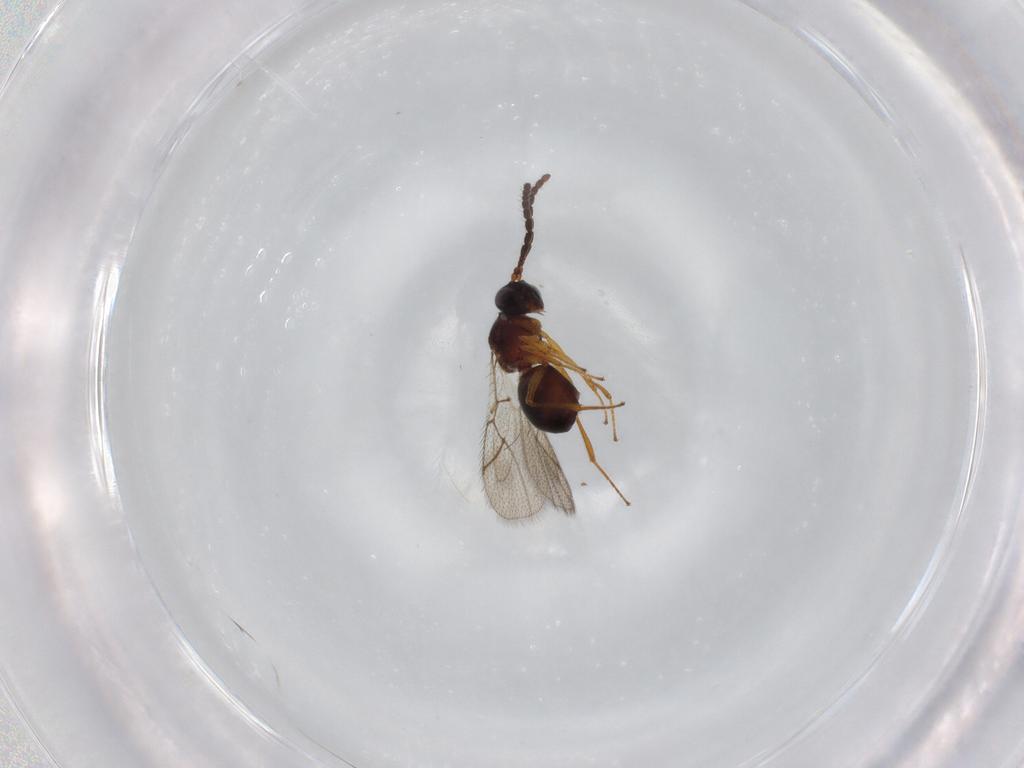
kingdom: Animalia
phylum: Arthropoda
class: Insecta
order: Hymenoptera
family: Figitidae
